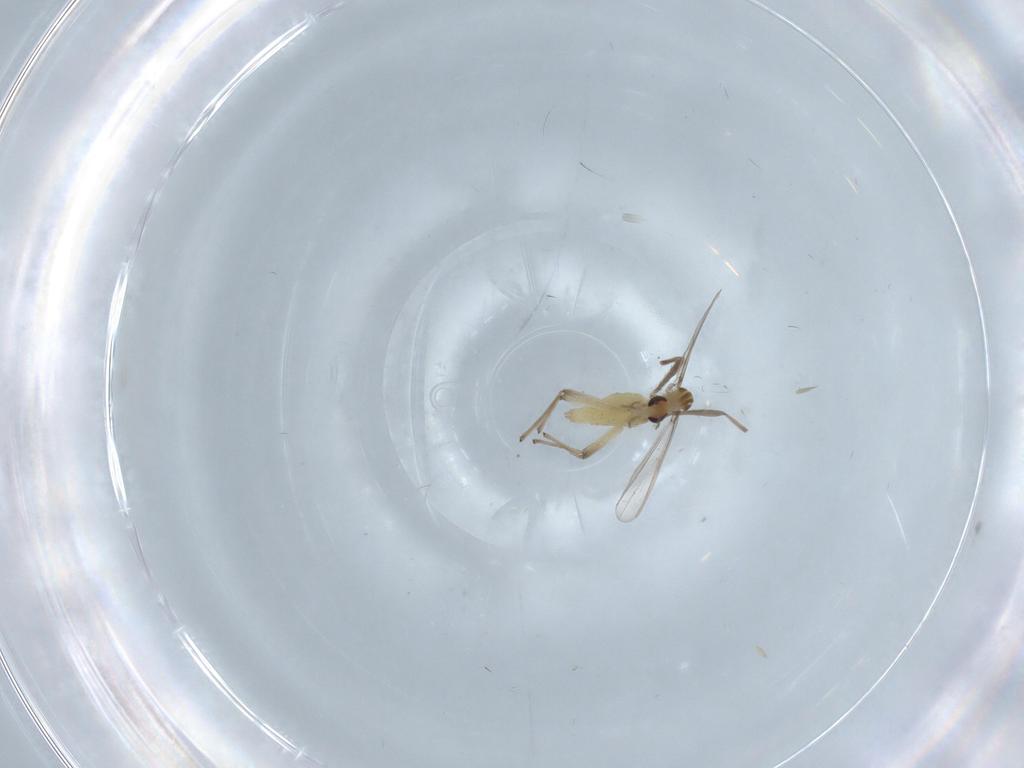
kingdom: Animalia
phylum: Arthropoda
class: Insecta
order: Diptera
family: Chironomidae
